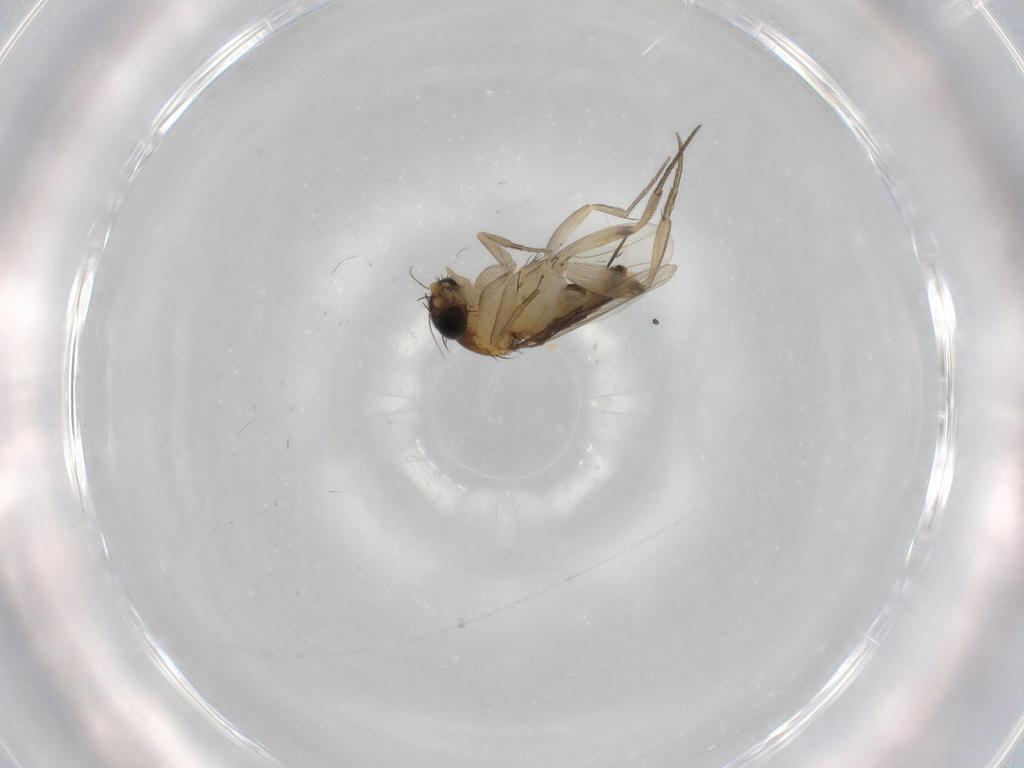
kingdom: Animalia
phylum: Arthropoda
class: Insecta
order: Diptera
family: Phoridae
